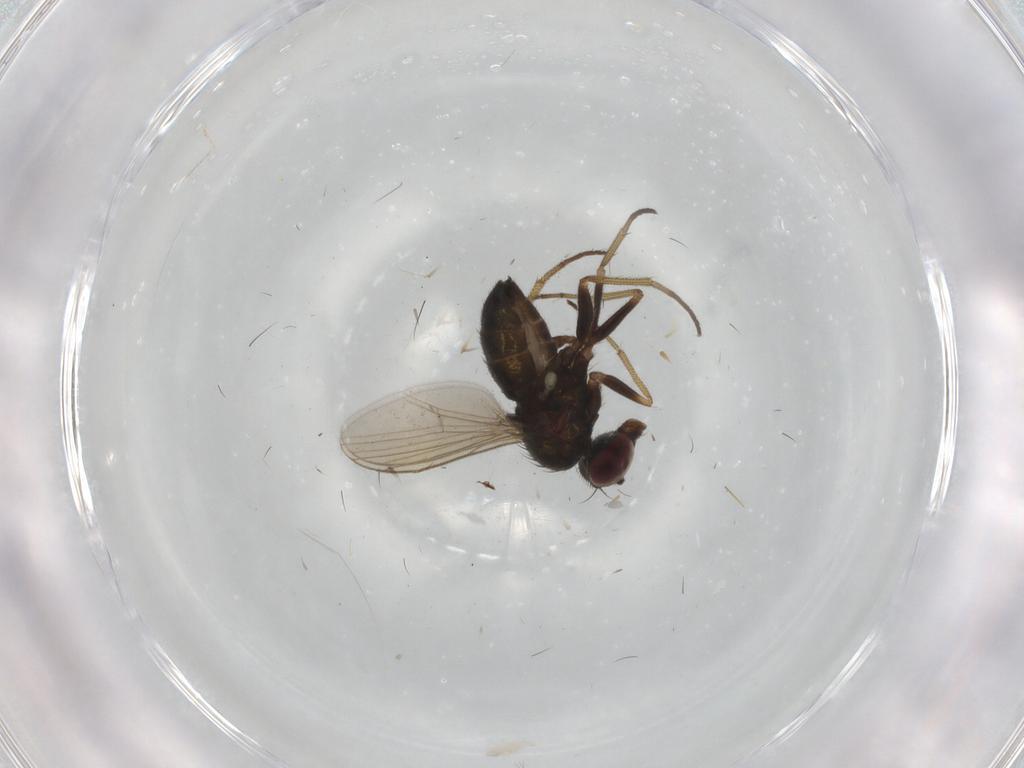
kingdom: Animalia
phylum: Arthropoda
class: Insecta
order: Diptera
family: Dolichopodidae
